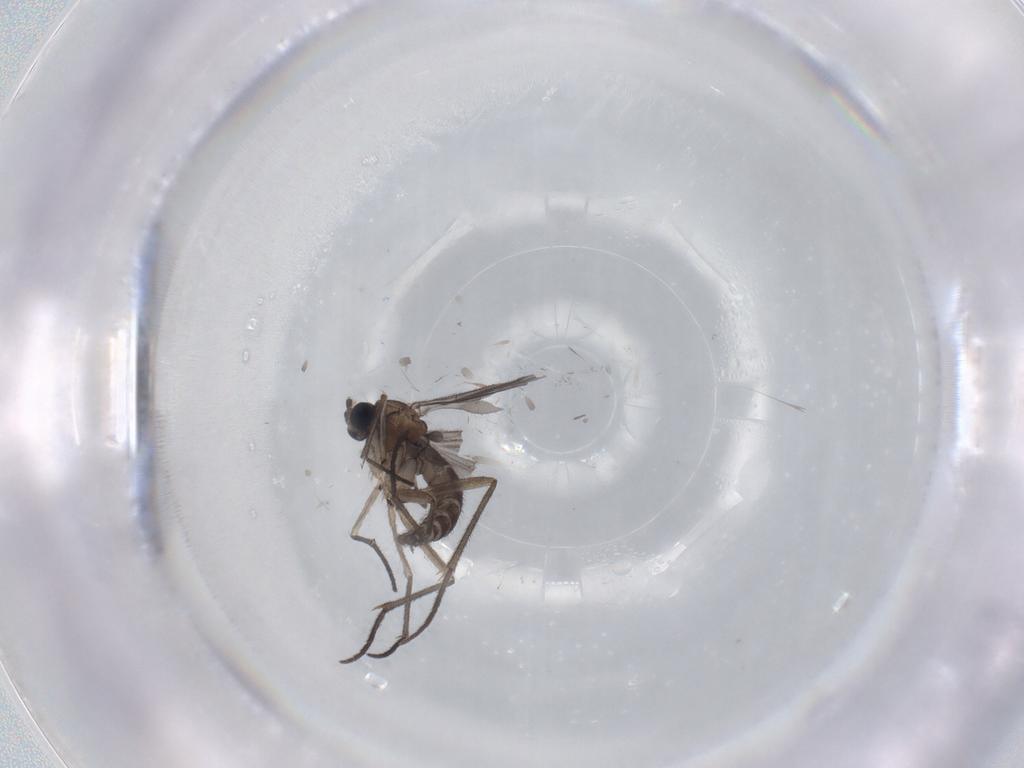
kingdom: Animalia
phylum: Arthropoda
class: Insecta
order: Diptera
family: Sciaridae
